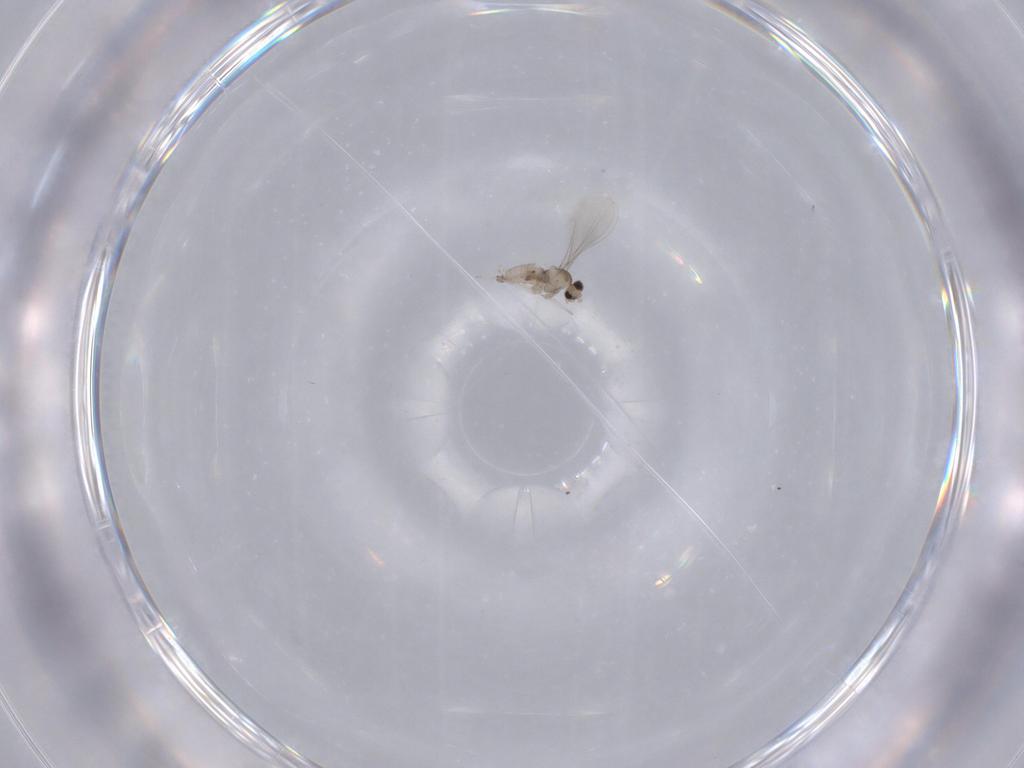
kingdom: Animalia
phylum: Arthropoda
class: Insecta
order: Diptera
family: Cecidomyiidae
